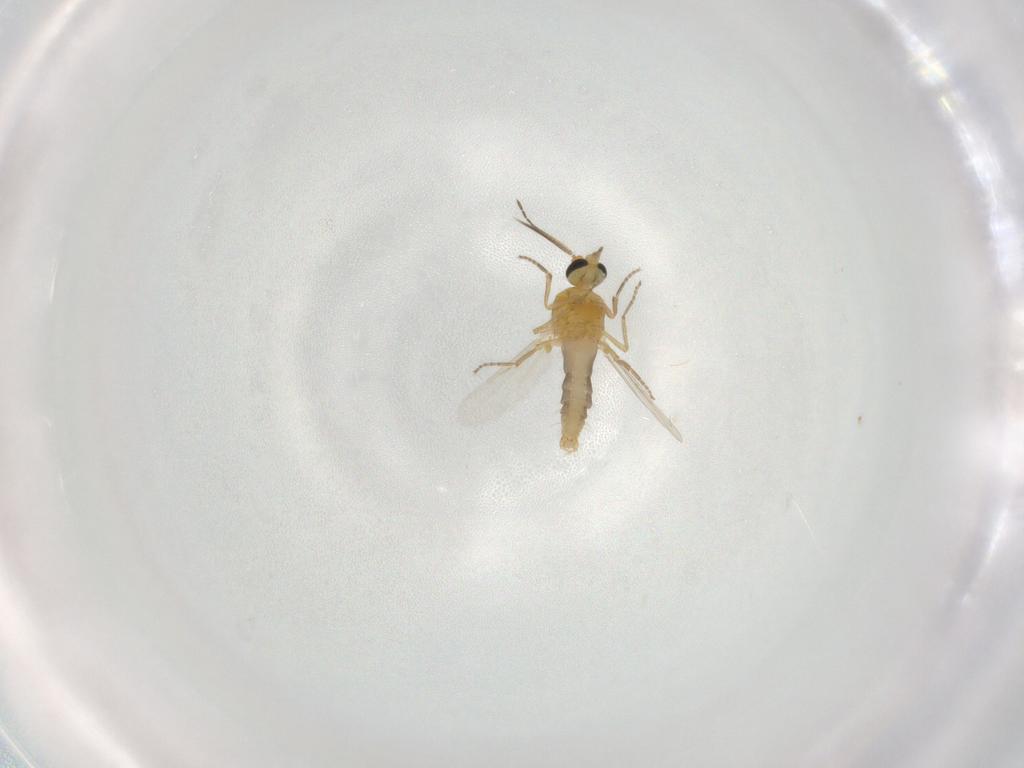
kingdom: Animalia
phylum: Arthropoda
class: Insecta
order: Diptera
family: Ceratopogonidae
